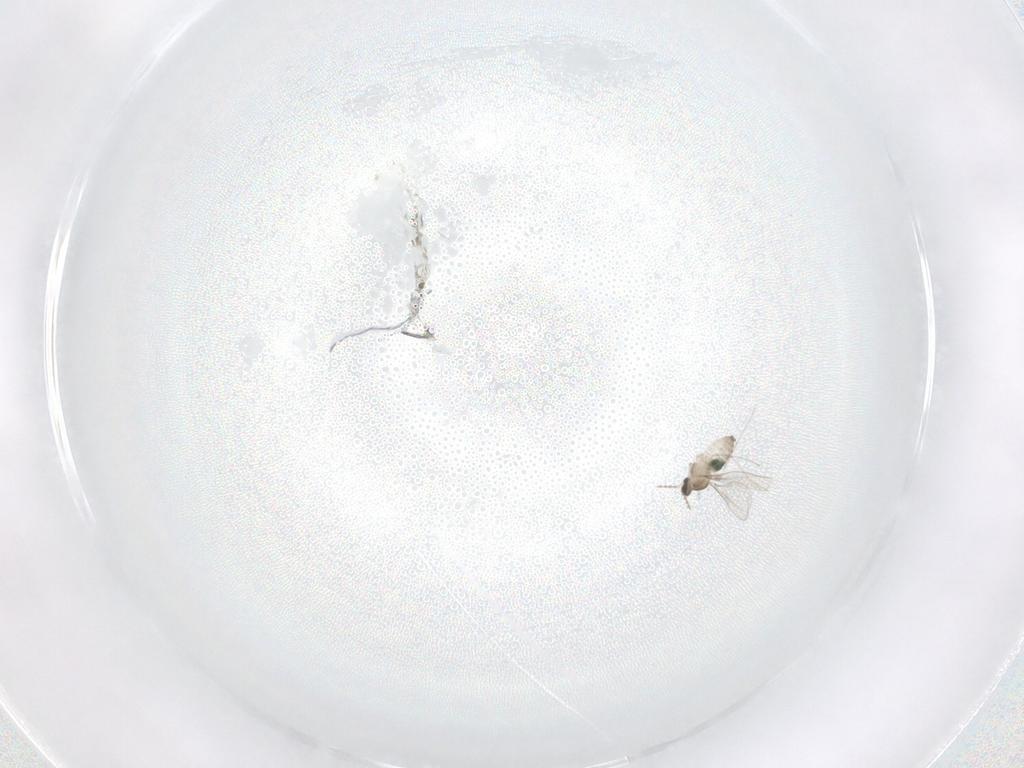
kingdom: Animalia
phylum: Arthropoda
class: Insecta
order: Diptera
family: Cecidomyiidae
